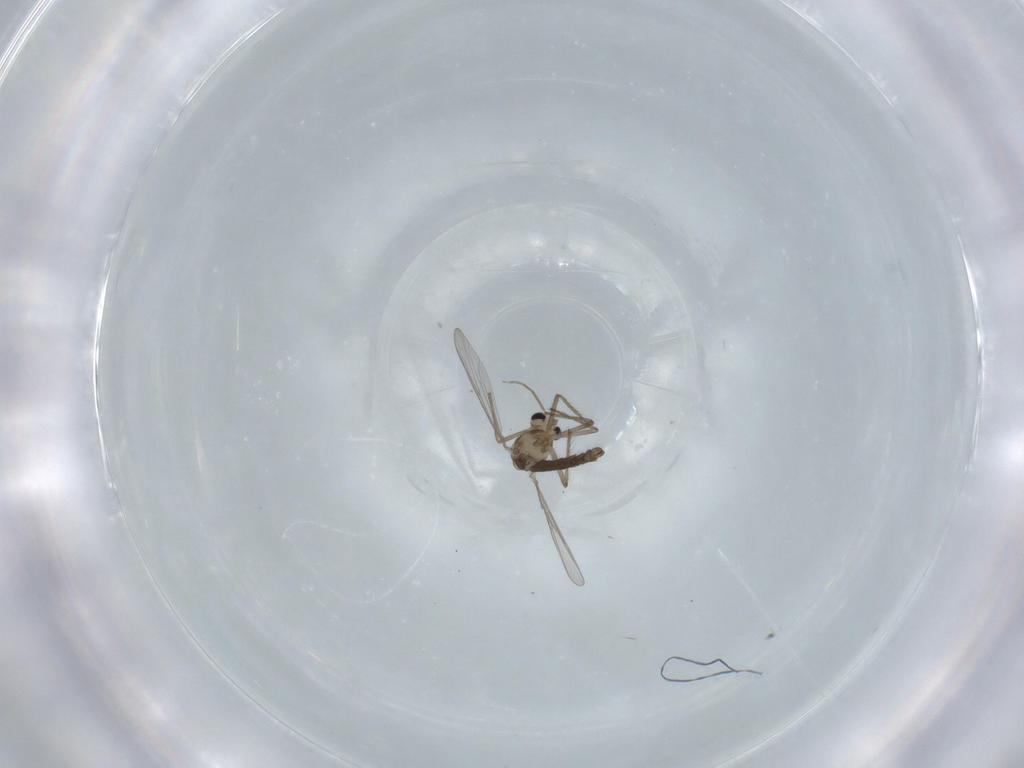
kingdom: Animalia
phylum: Arthropoda
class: Insecta
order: Diptera
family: Chironomidae
